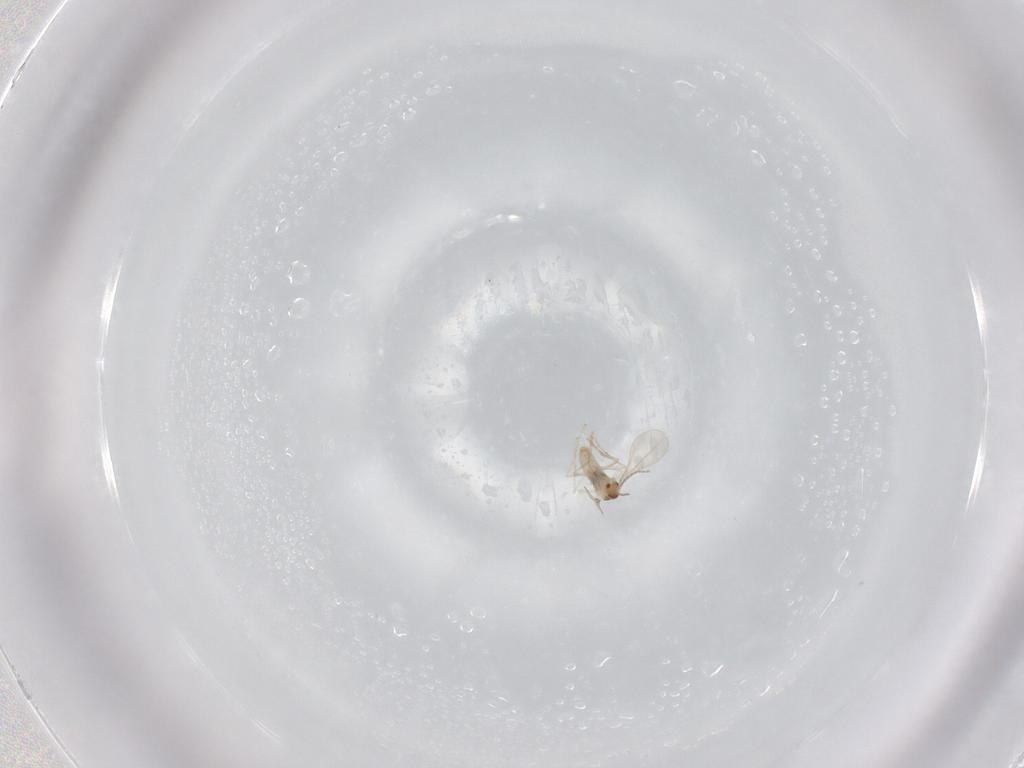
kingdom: Animalia
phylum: Arthropoda
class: Insecta
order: Diptera
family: Cecidomyiidae
